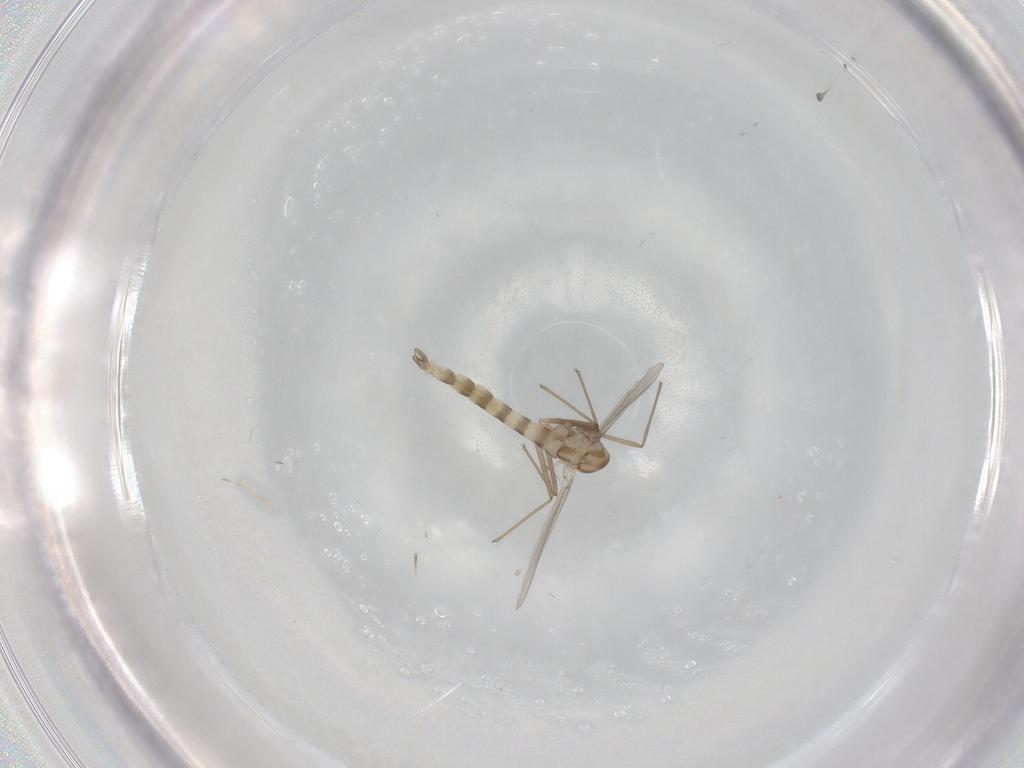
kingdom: Animalia
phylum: Arthropoda
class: Insecta
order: Diptera
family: Chironomidae
